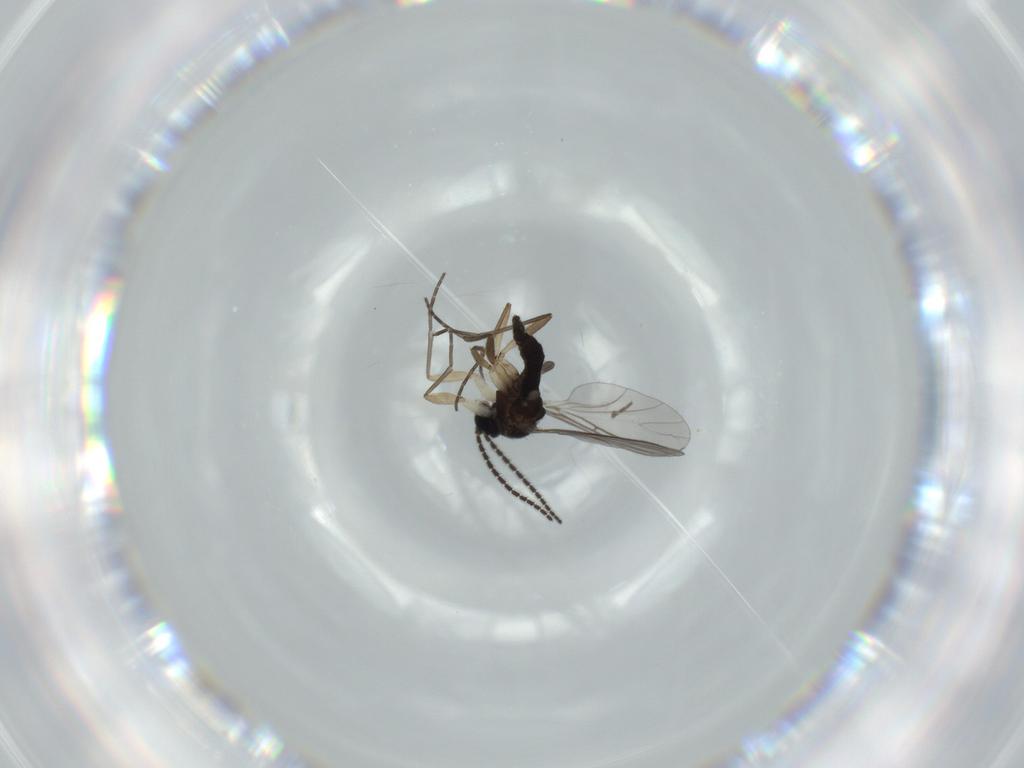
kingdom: Animalia
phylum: Arthropoda
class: Insecta
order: Diptera
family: Sciaridae
